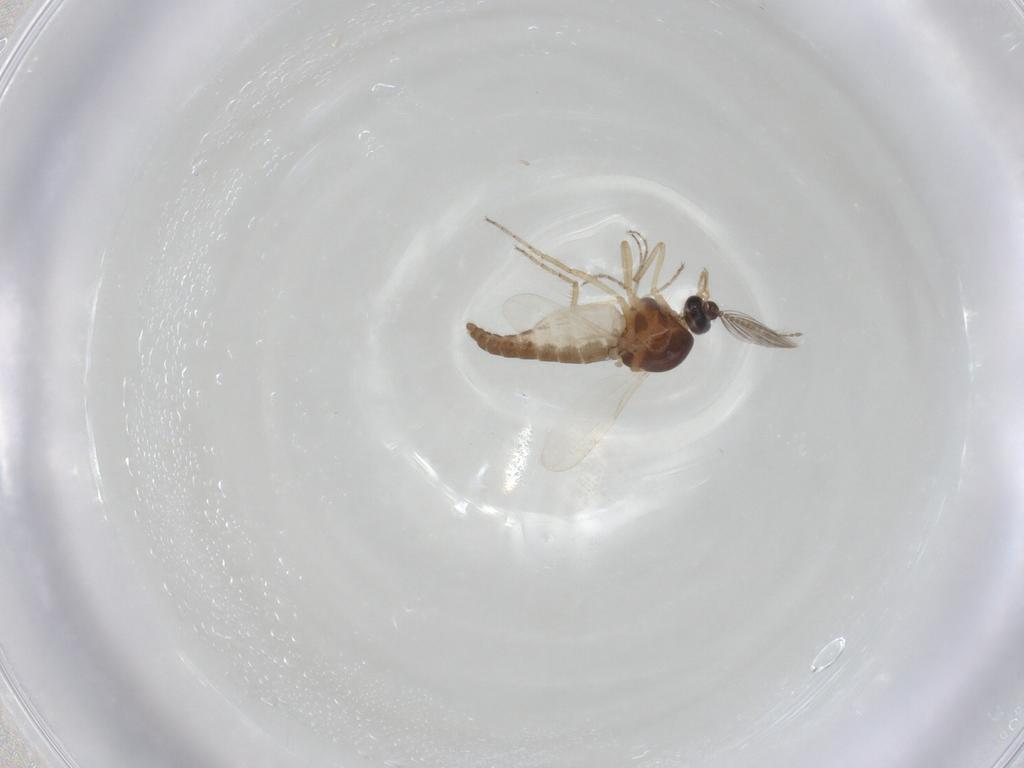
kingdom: Animalia
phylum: Arthropoda
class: Insecta
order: Diptera
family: Ceratopogonidae
